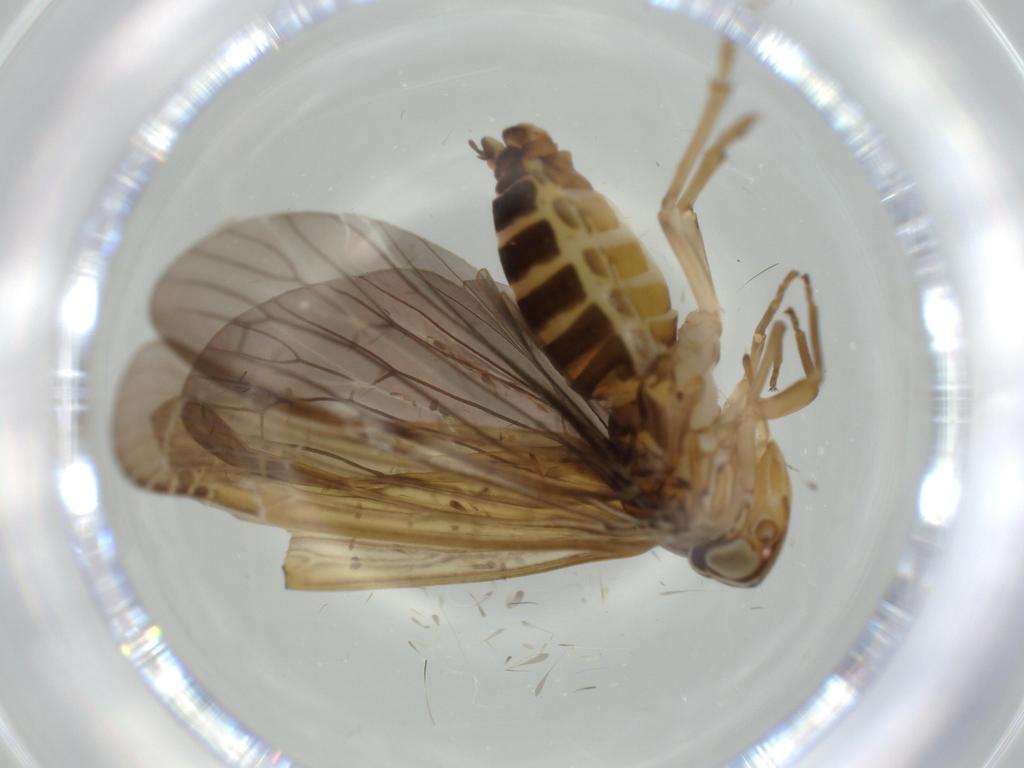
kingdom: Animalia
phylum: Arthropoda
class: Insecta
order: Hemiptera
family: Achilidae
